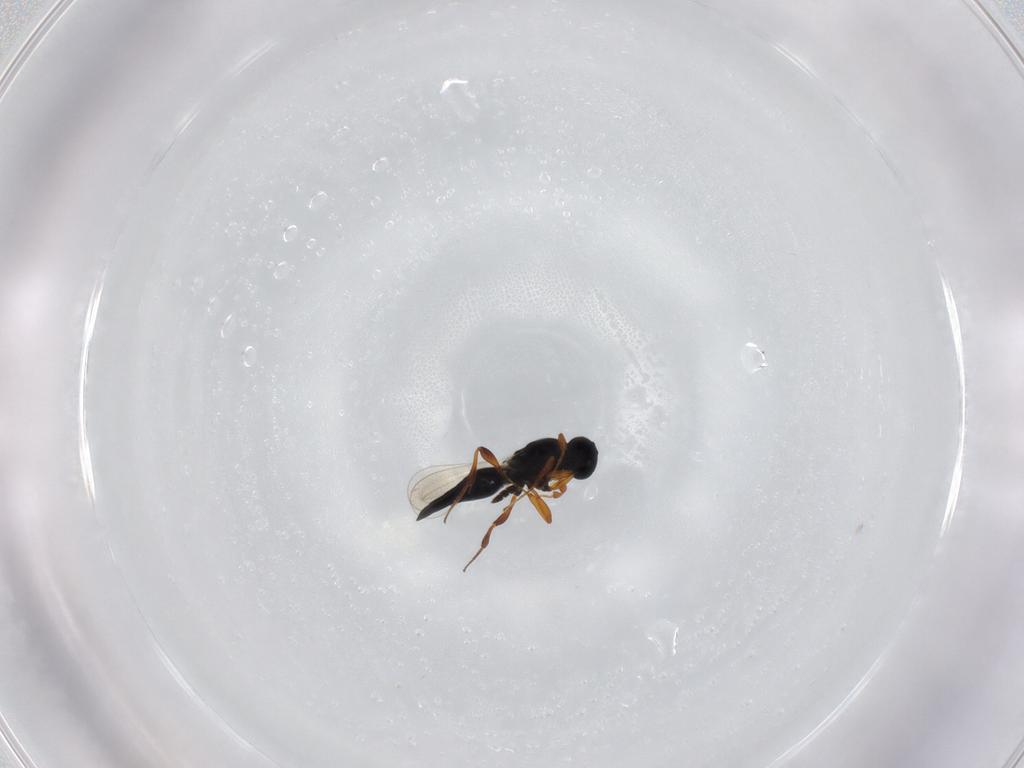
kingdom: Animalia
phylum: Arthropoda
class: Insecta
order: Hymenoptera
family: Platygastridae
